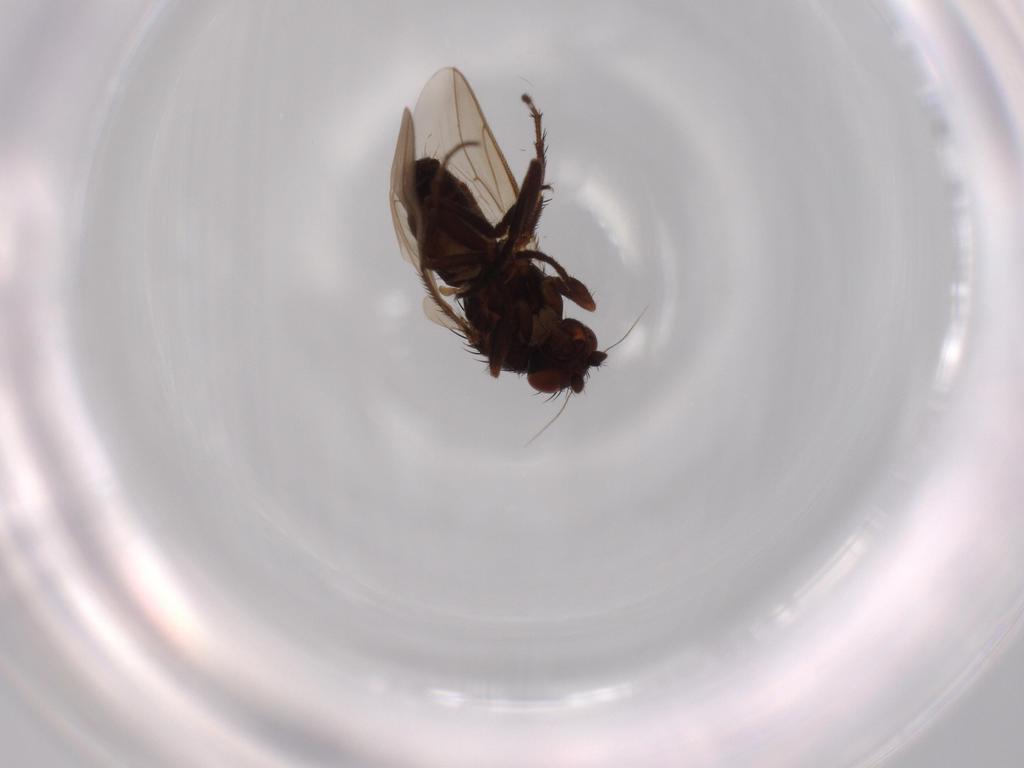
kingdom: Animalia
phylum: Arthropoda
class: Insecta
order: Diptera
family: Sphaeroceridae
